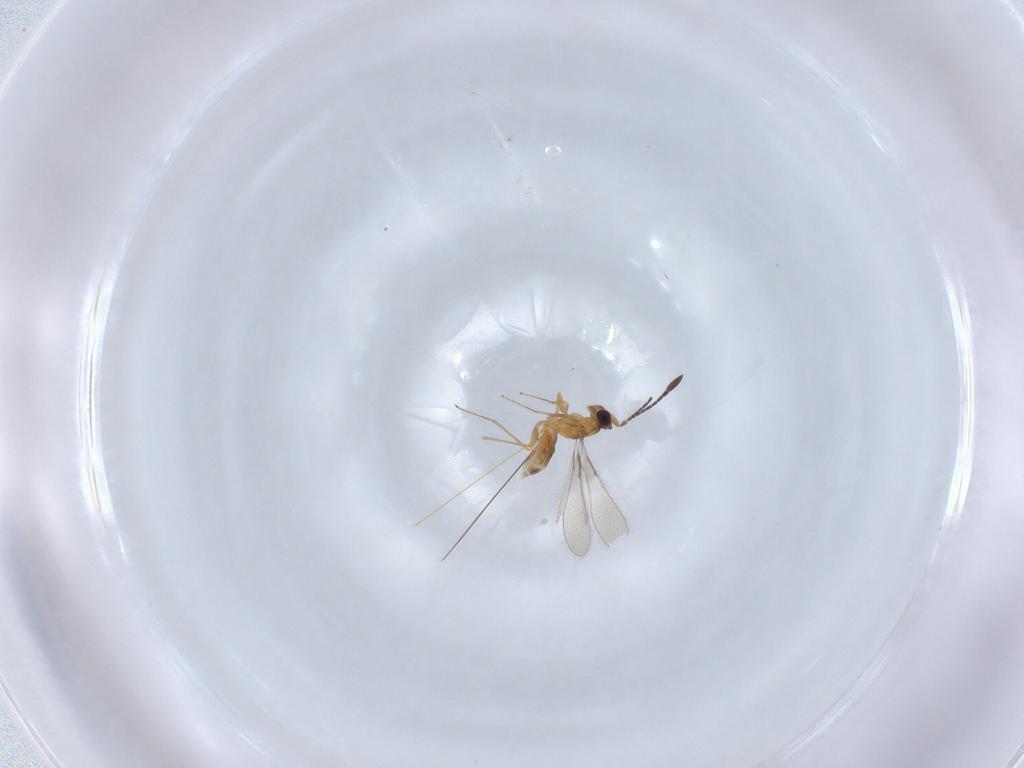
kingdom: Animalia
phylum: Arthropoda
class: Insecta
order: Hymenoptera
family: Mymaridae
